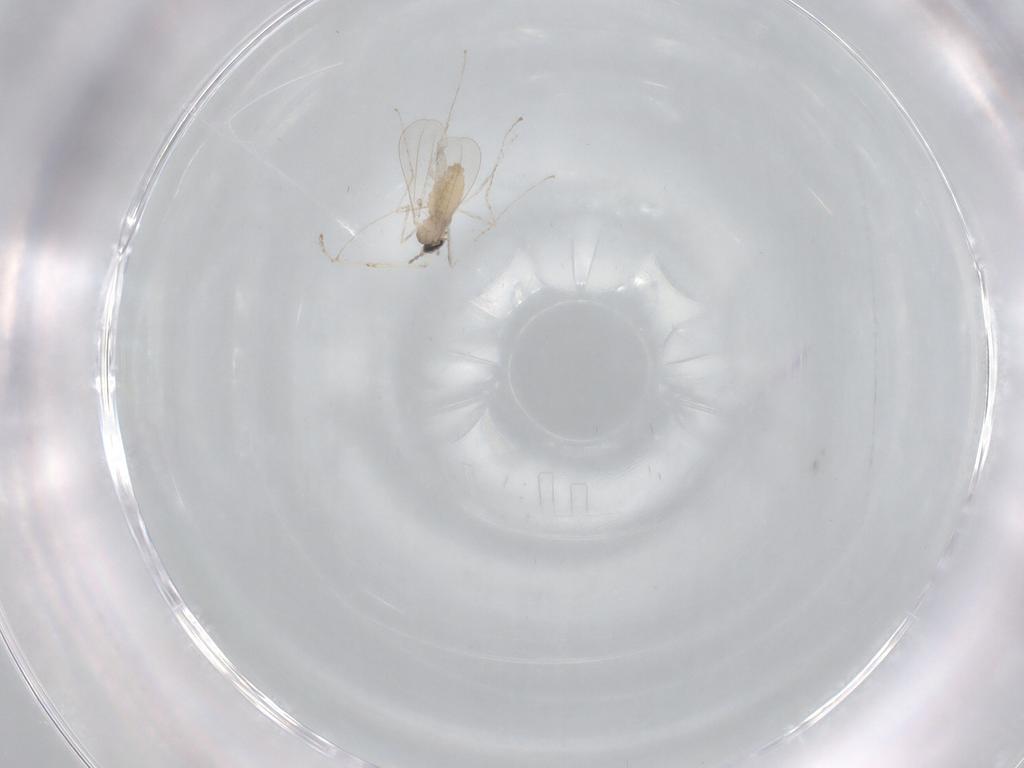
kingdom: Animalia
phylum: Arthropoda
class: Insecta
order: Diptera
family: Cecidomyiidae
